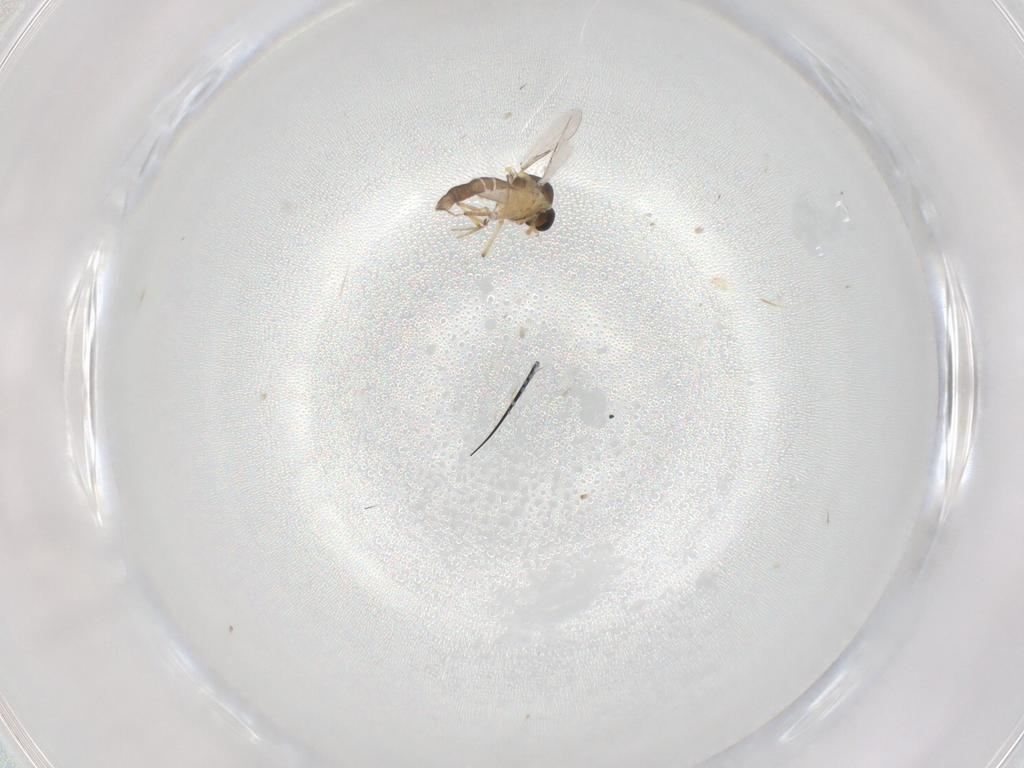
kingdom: Animalia
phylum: Arthropoda
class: Insecta
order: Diptera
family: Ceratopogonidae
